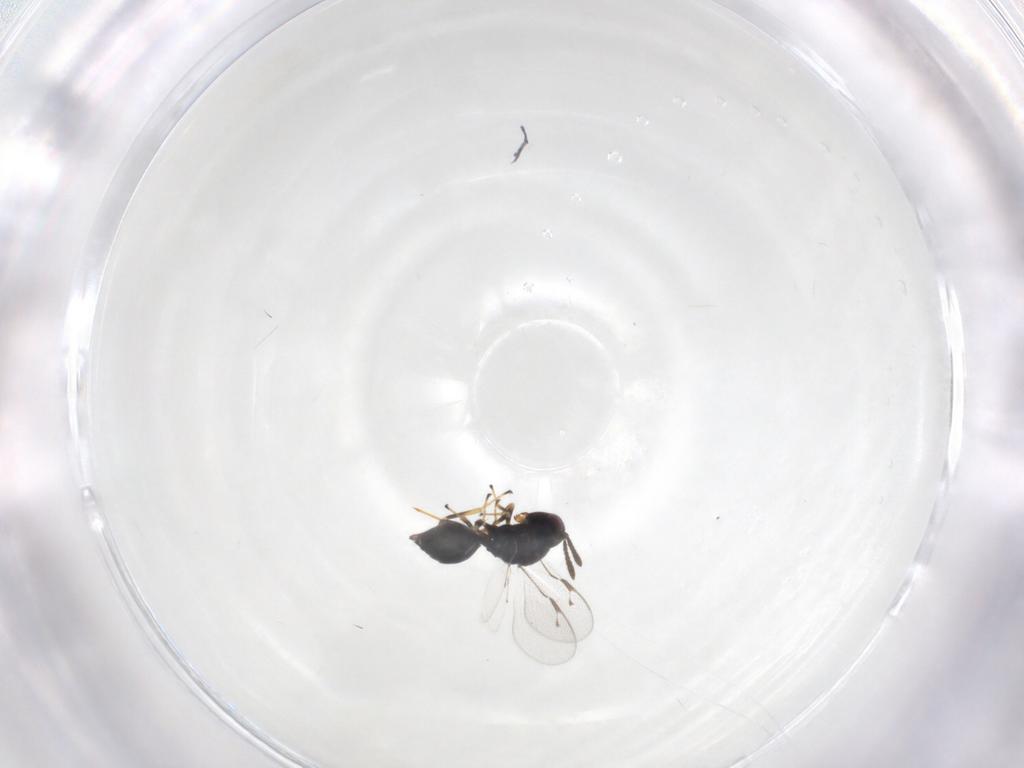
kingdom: Animalia
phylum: Arthropoda
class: Insecta
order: Hymenoptera
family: Pteromalidae
